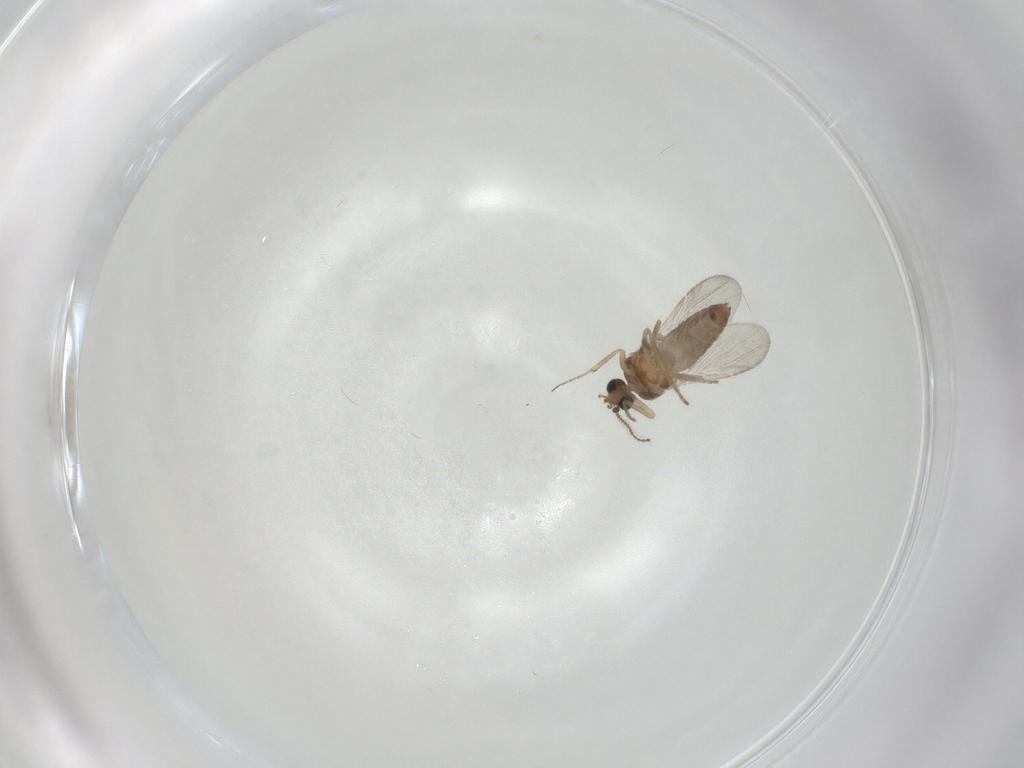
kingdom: Animalia
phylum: Arthropoda
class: Insecta
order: Diptera
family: Ceratopogonidae
